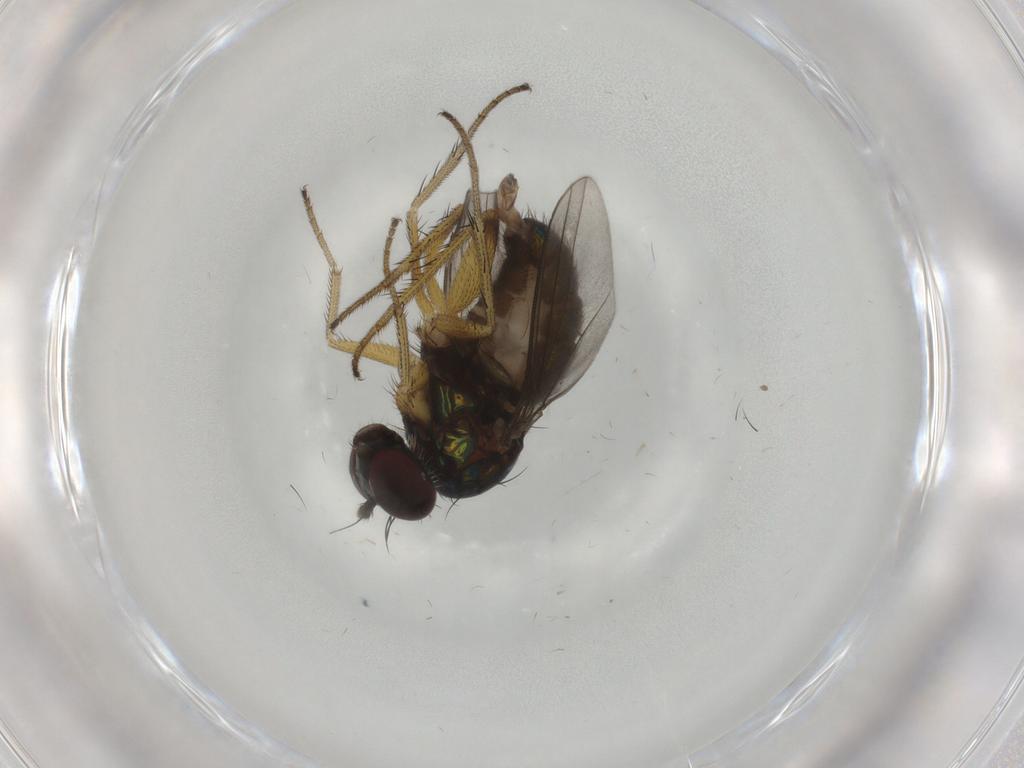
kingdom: Animalia
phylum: Arthropoda
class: Insecta
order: Diptera
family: Dolichopodidae
